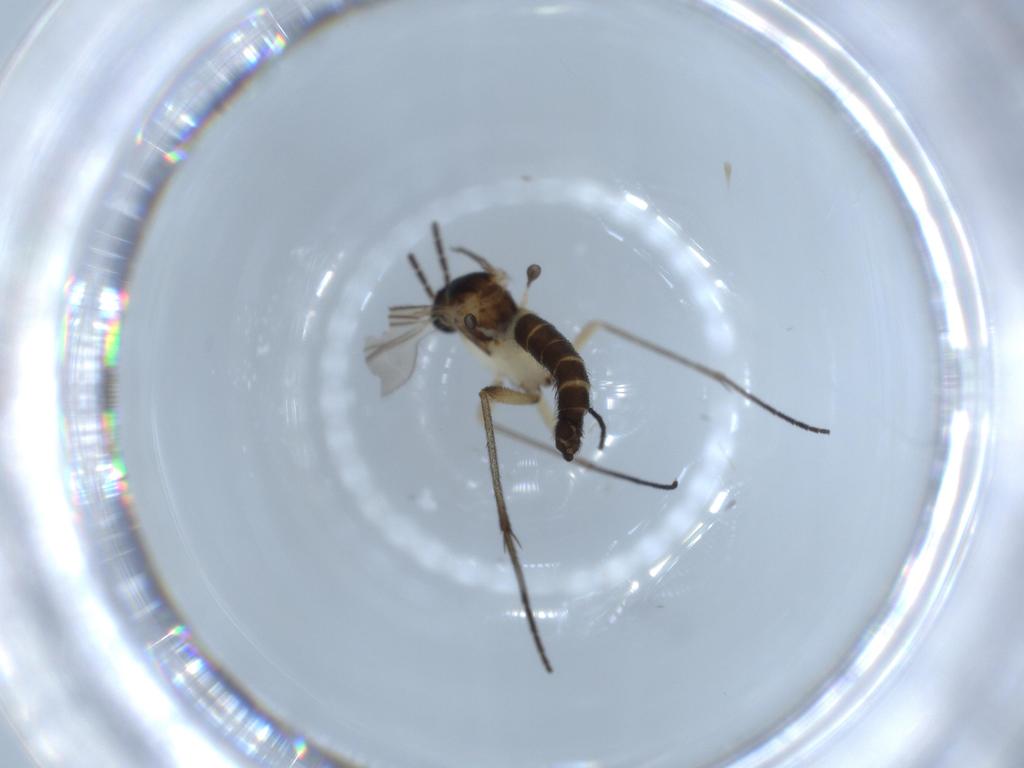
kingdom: Animalia
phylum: Arthropoda
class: Insecta
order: Diptera
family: Sciaridae
